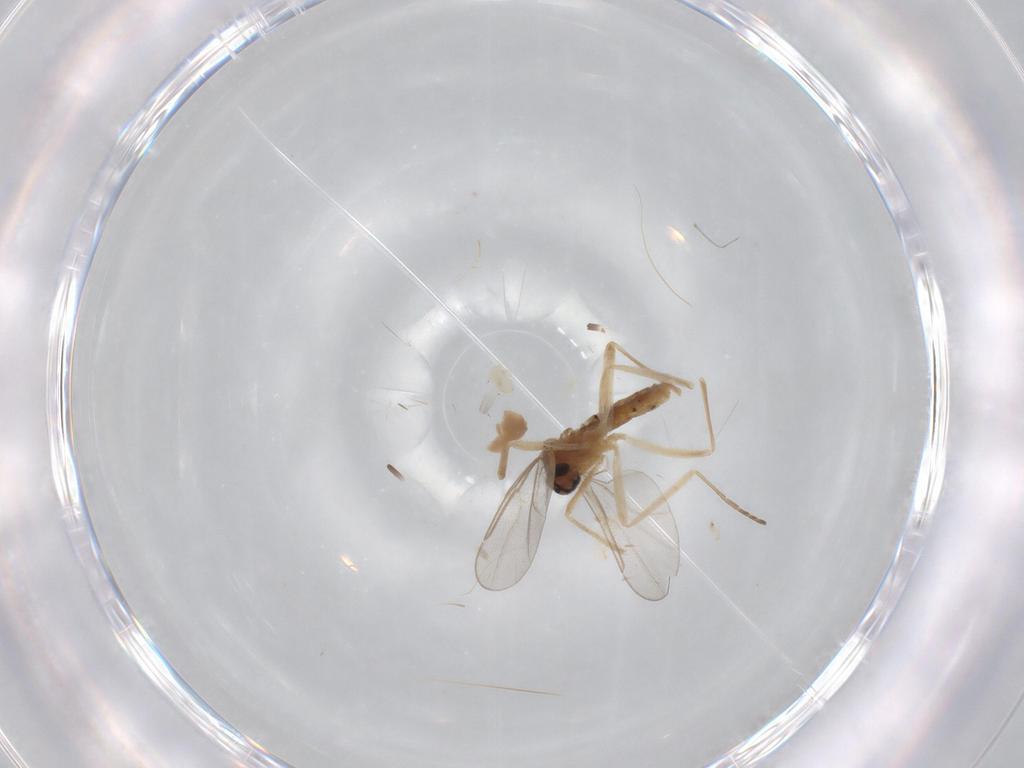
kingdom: Animalia
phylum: Arthropoda
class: Insecta
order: Diptera
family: Cecidomyiidae
